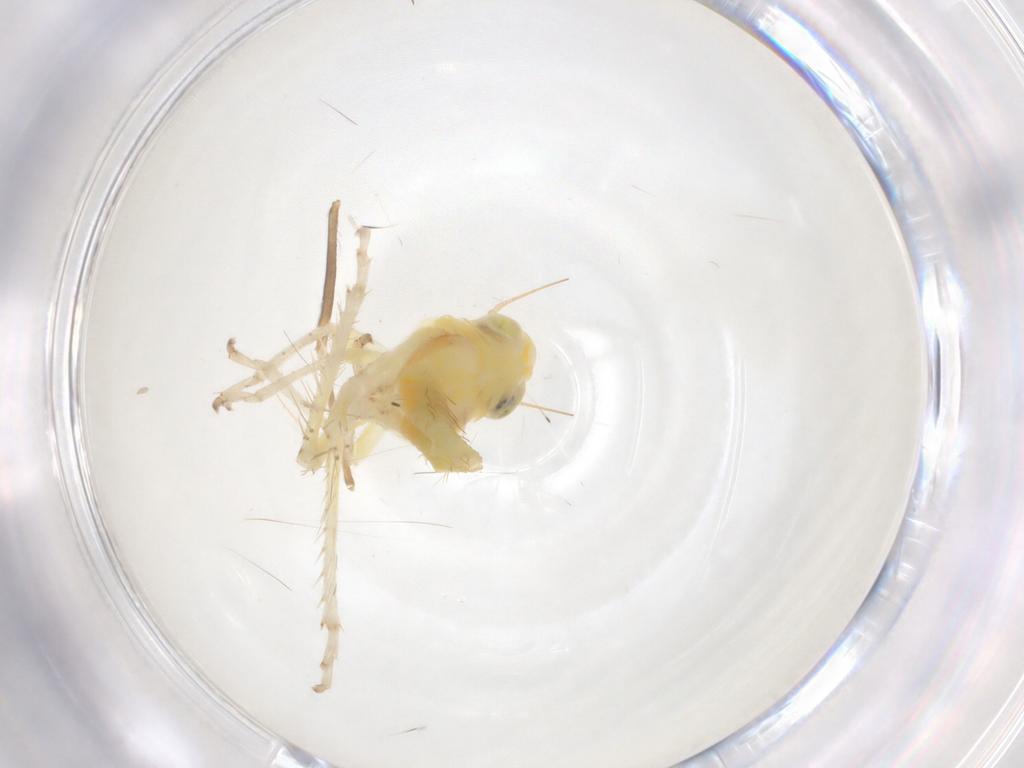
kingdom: Animalia
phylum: Arthropoda
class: Insecta
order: Hemiptera
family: Cicadellidae
